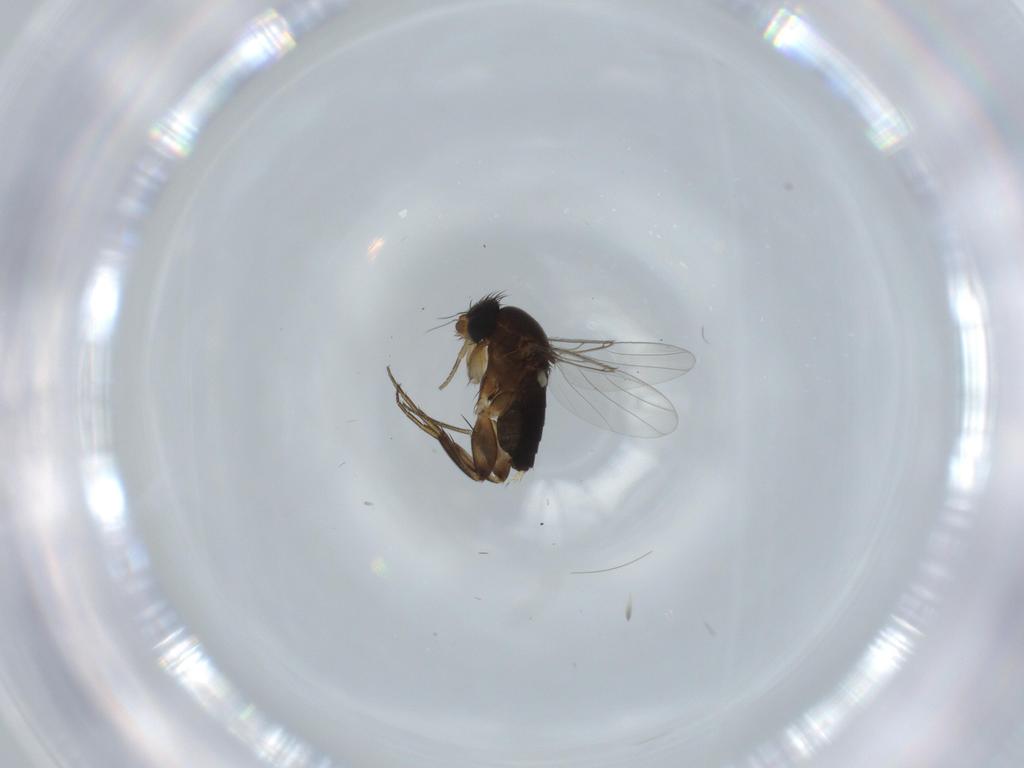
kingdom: Animalia
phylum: Arthropoda
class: Insecta
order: Diptera
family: Phoridae
